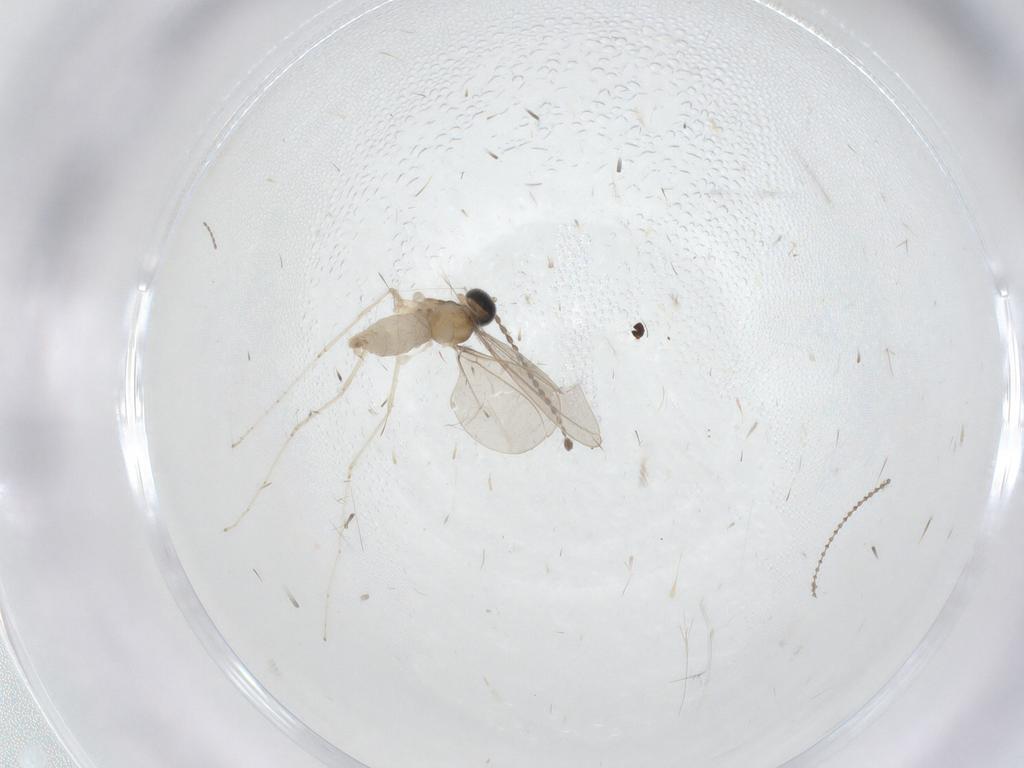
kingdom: Animalia
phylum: Arthropoda
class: Insecta
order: Diptera
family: Cecidomyiidae
